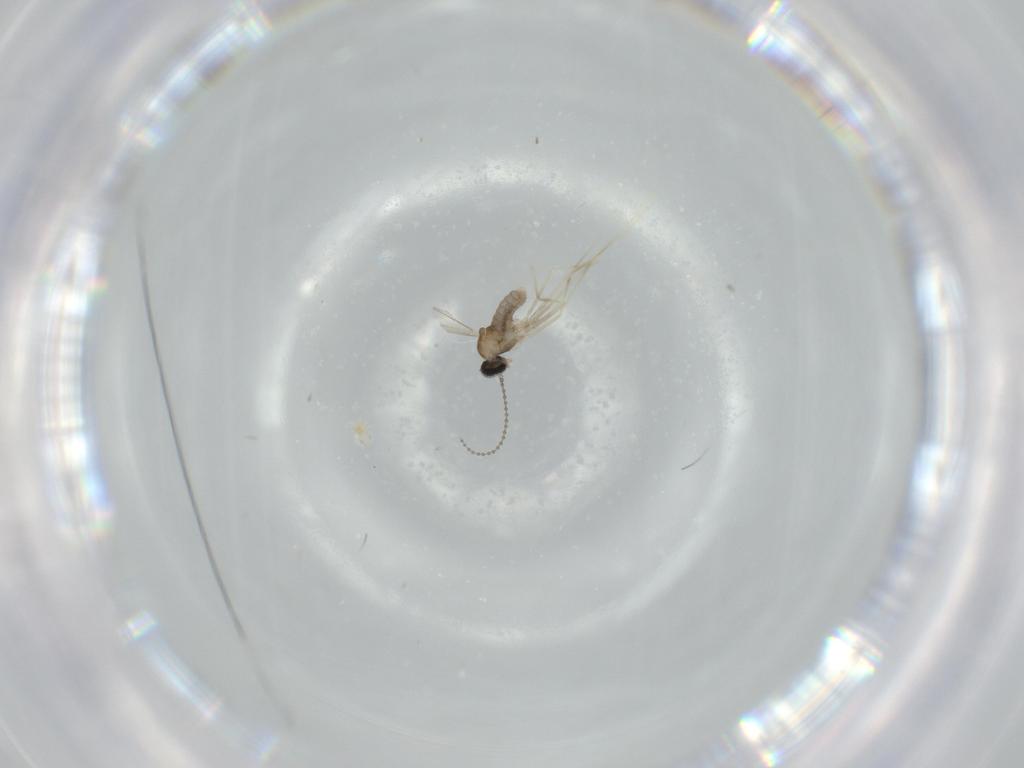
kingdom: Animalia
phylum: Arthropoda
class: Insecta
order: Diptera
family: Cecidomyiidae
